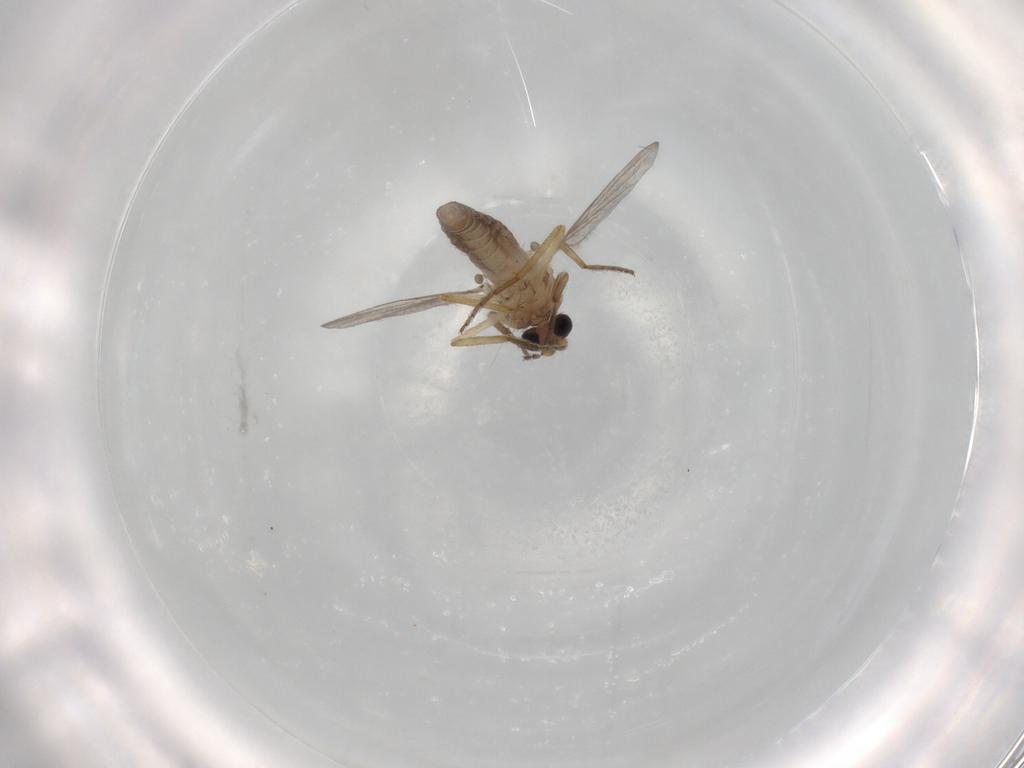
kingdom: Animalia
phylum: Arthropoda
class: Insecta
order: Diptera
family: Ceratopogonidae
